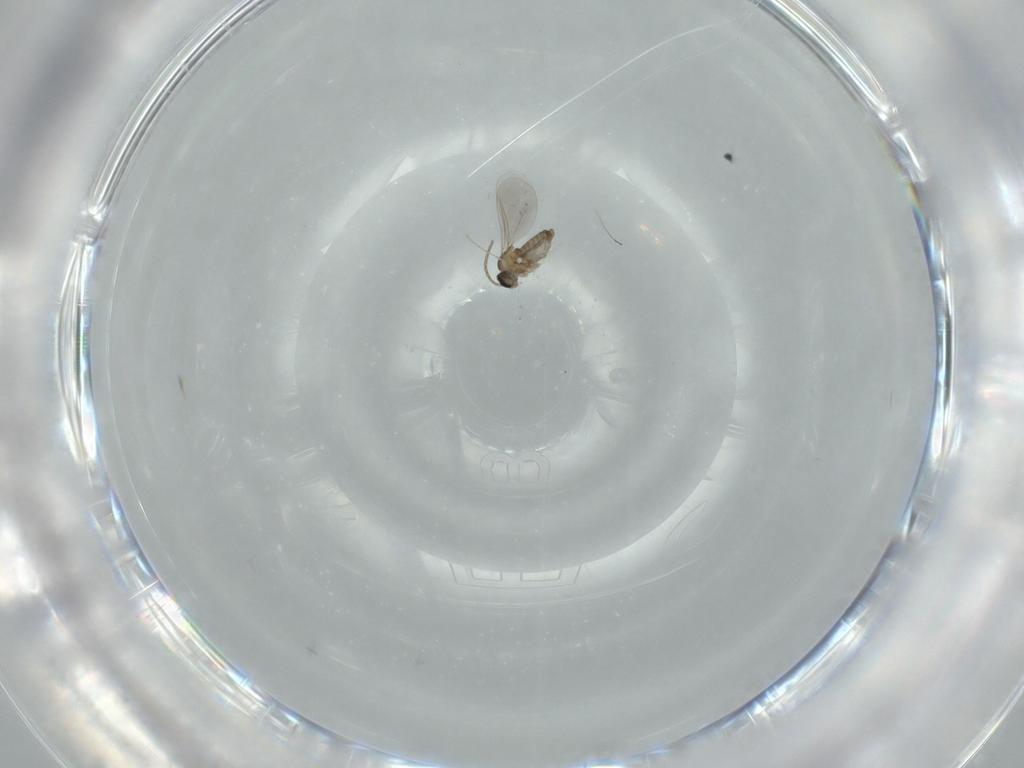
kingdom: Animalia
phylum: Arthropoda
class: Insecta
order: Diptera
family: Cecidomyiidae
